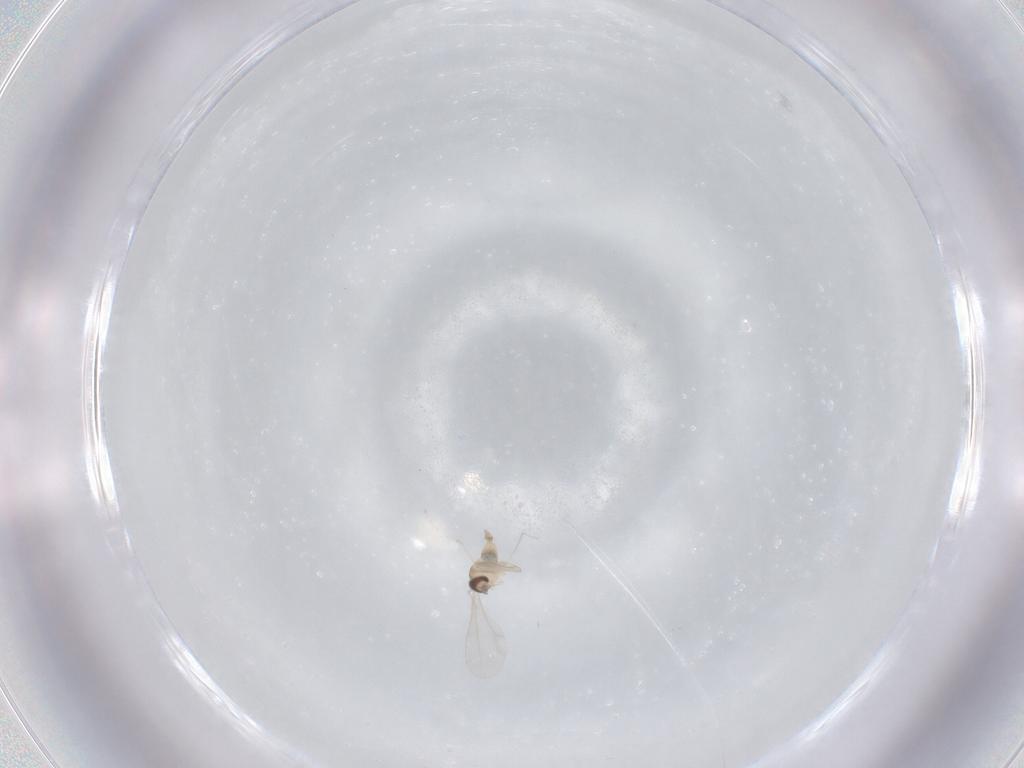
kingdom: Animalia
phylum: Arthropoda
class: Insecta
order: Diptera
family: Cecidomyiidae
